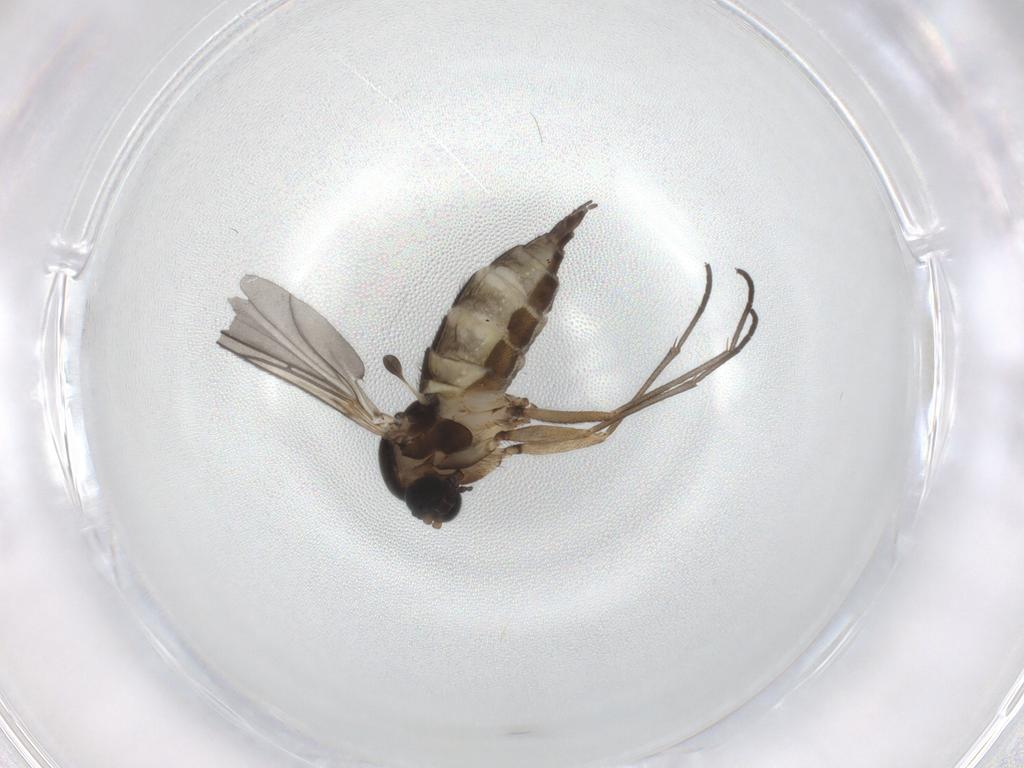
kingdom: Animalia
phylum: Arthropoda
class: Insecta
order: Diptera
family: Sciaridae
